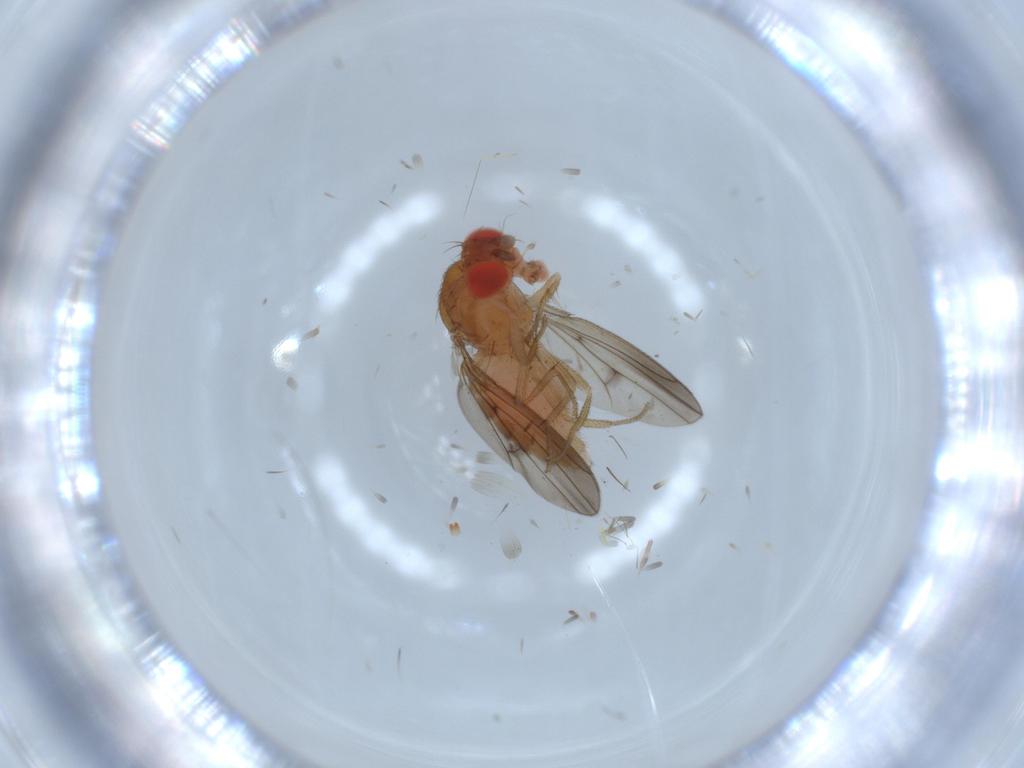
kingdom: Animalia
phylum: Arthropoda
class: Insecta
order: Diptera
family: Drosophilidae
